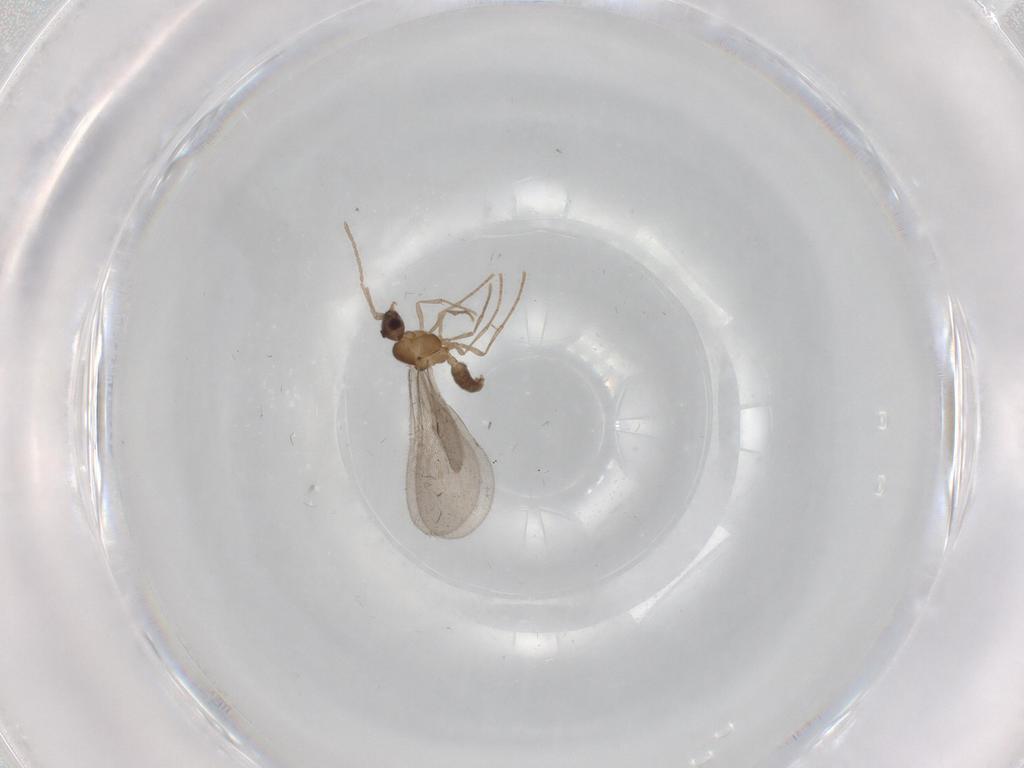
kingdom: Animalia
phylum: Arthropoda
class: Insecta
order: Hymenoptera
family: Formicidae
